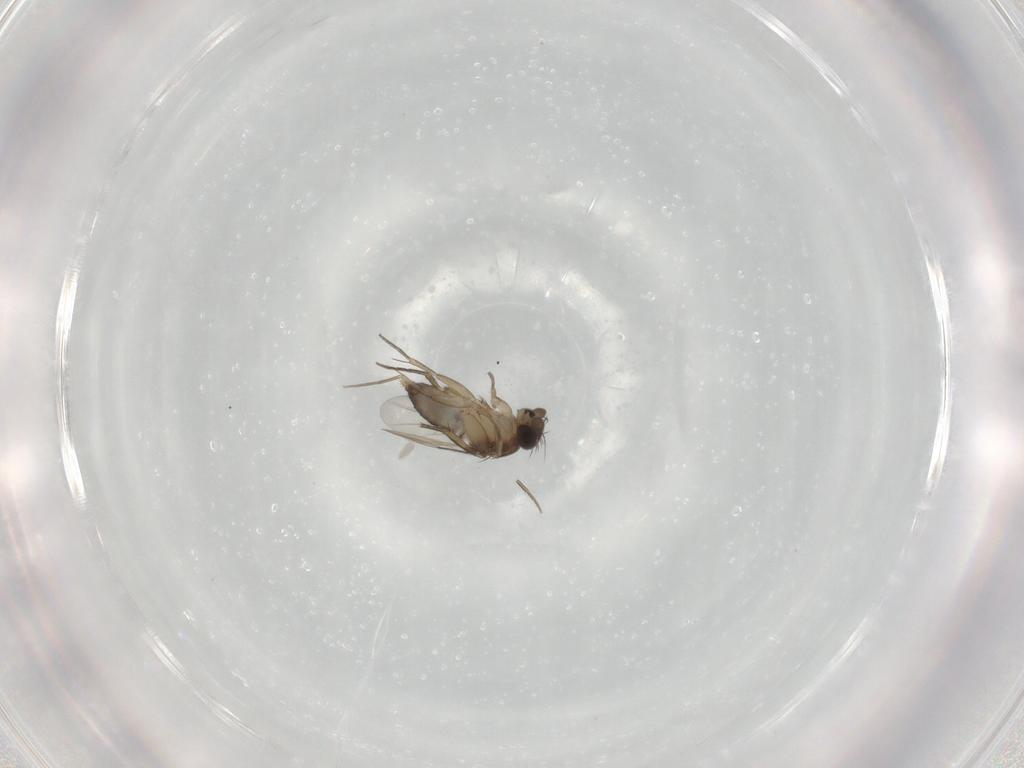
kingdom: Animalia
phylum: Arthropoda
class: Insecta
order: Diptera
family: Phoridae
